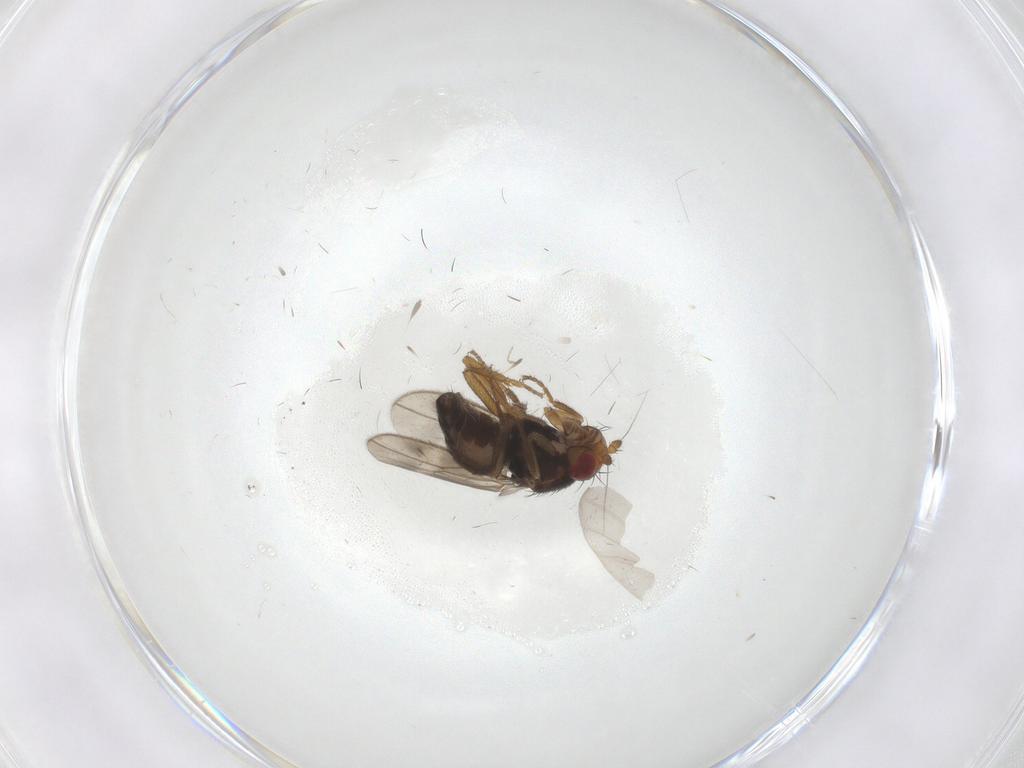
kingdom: Animalia
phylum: Arthropoda
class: Insecta
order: Diptera
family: Sphaeroceridae
